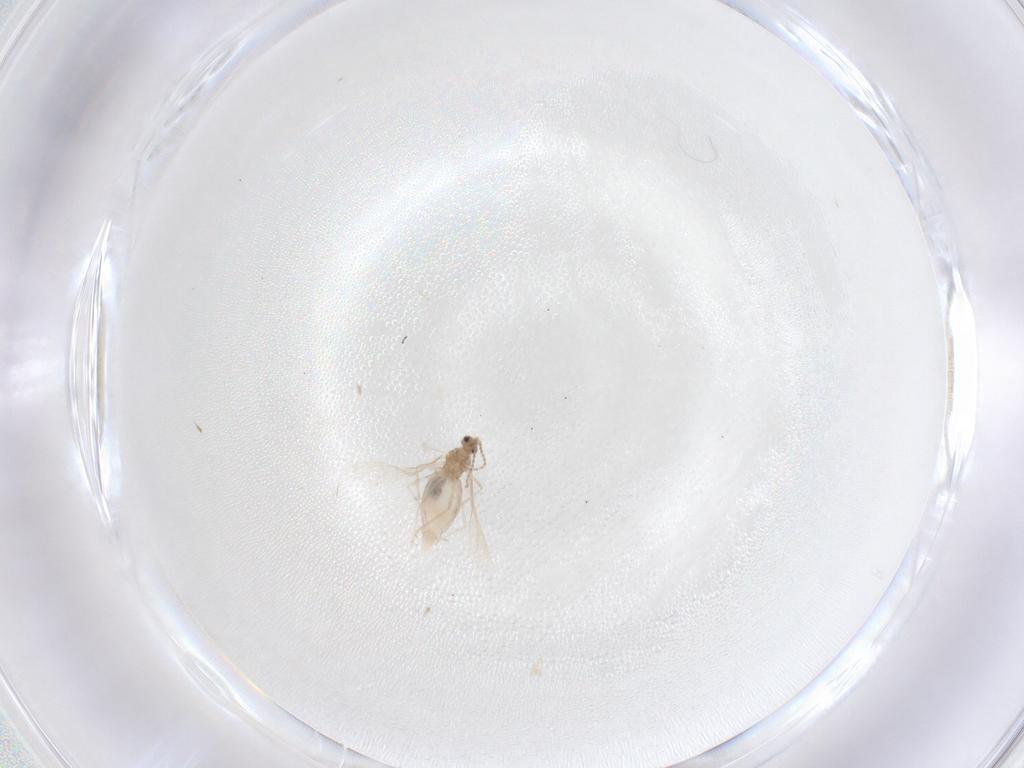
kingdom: Animalia
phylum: Arthropoda
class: Insecta
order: Diptera
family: Cecidomyiidae
